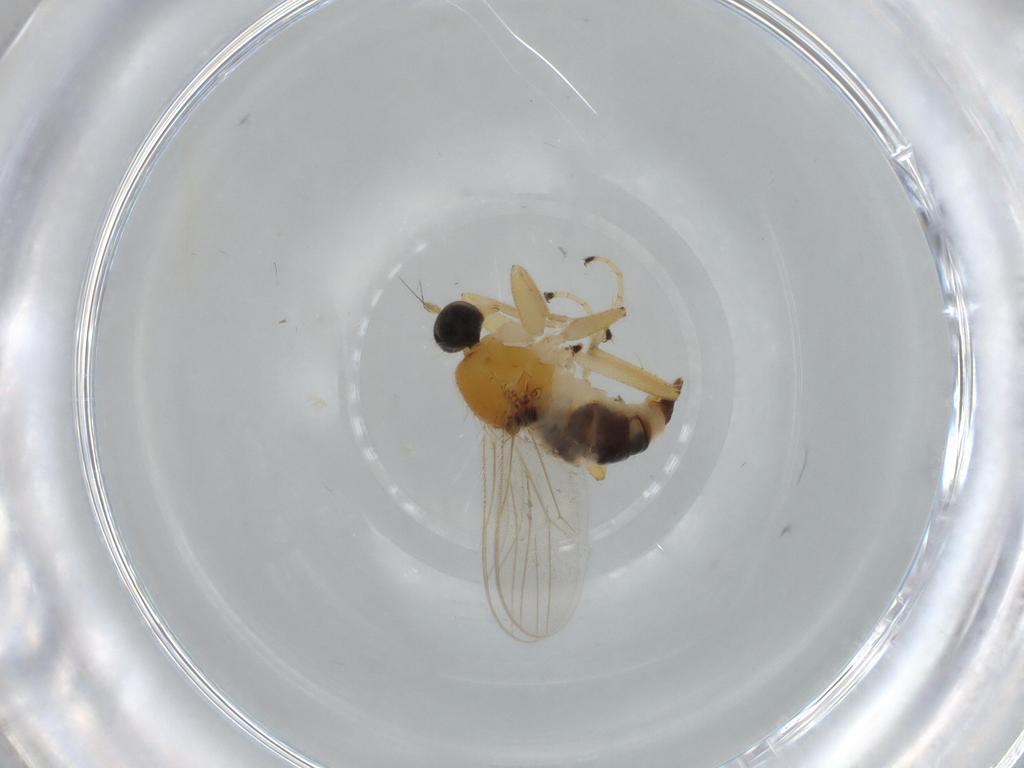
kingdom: Animalia
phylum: Arthropoda
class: Insecta
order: Diptera
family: Hybotidae
